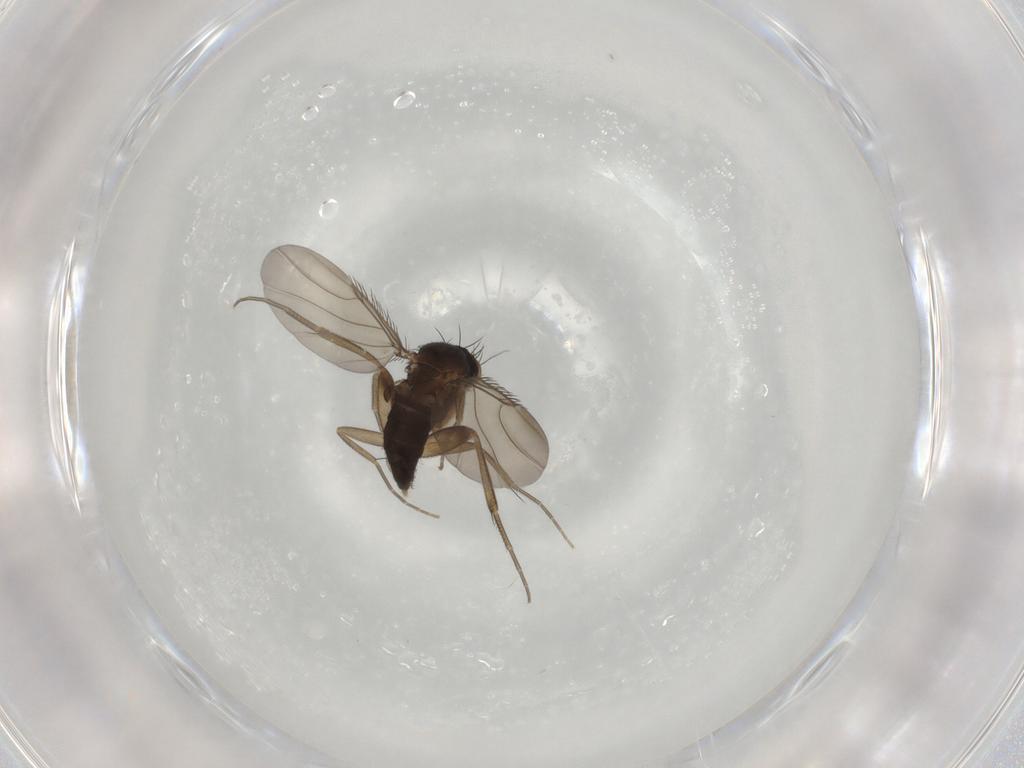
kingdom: Animalia
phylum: Arthropoda
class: Insecta
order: Diptera
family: Phoridae
